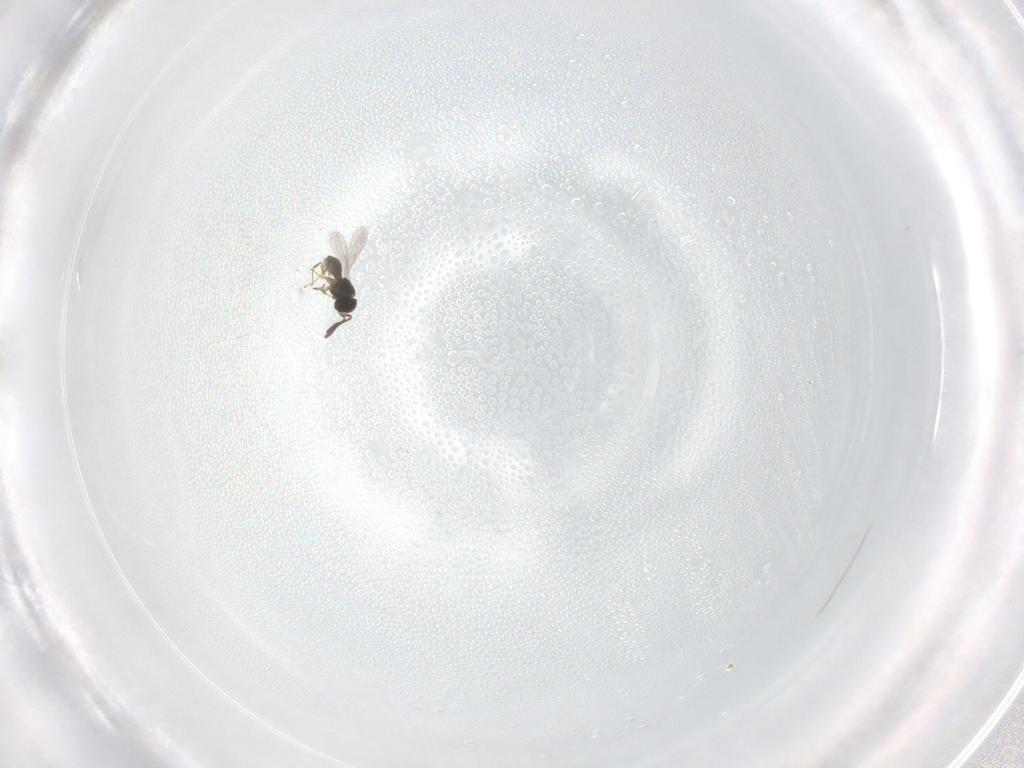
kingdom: Animalia
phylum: Arthropoda
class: Insecta
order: Hymenoptera
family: Scelionidae
